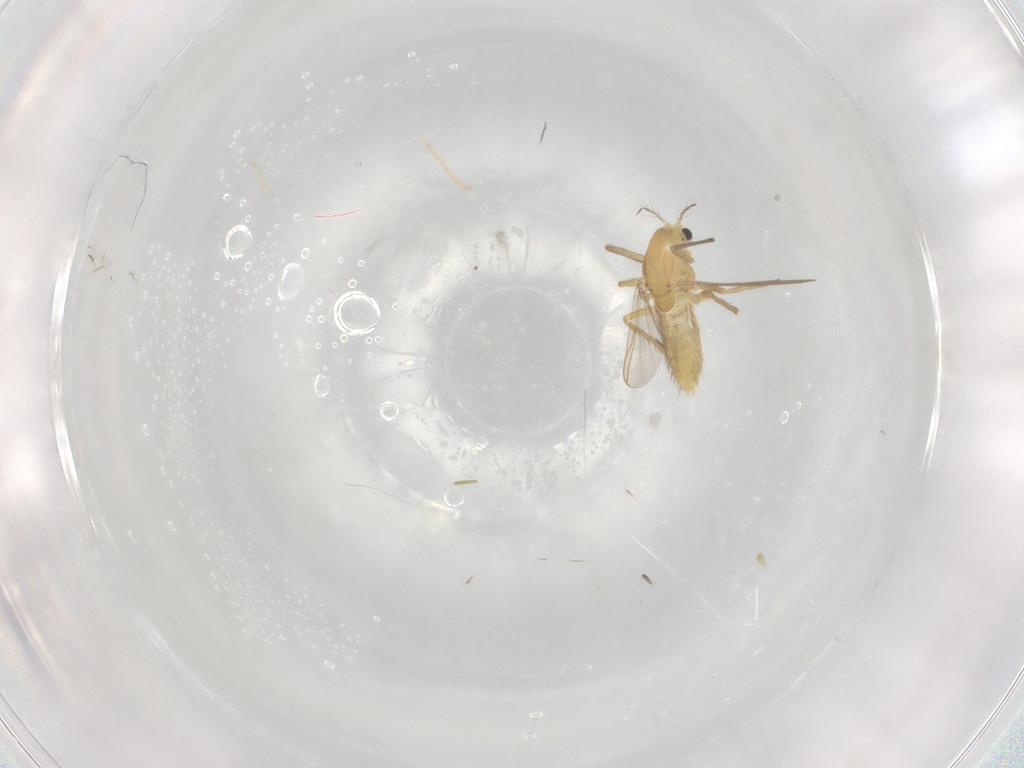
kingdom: Animalia
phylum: Arthropoda
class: Insecta
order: Diptera
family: Chironomidae
